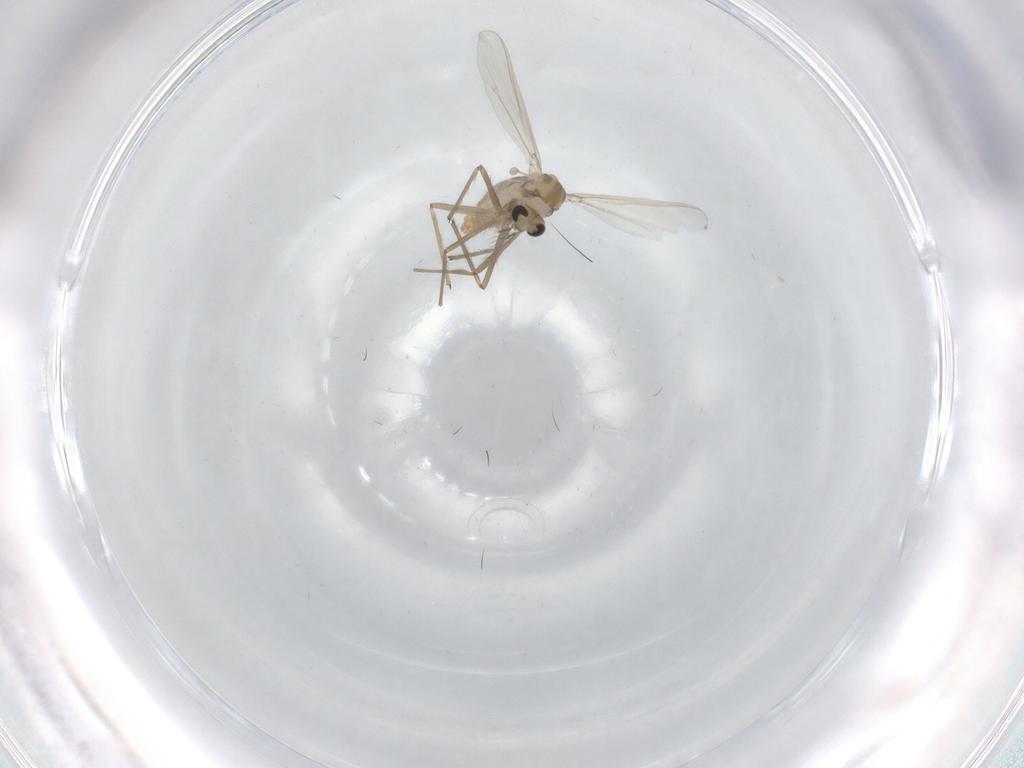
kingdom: Animalia
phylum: Arthropoda
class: Insecta
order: Diptera
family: Chironomidae
